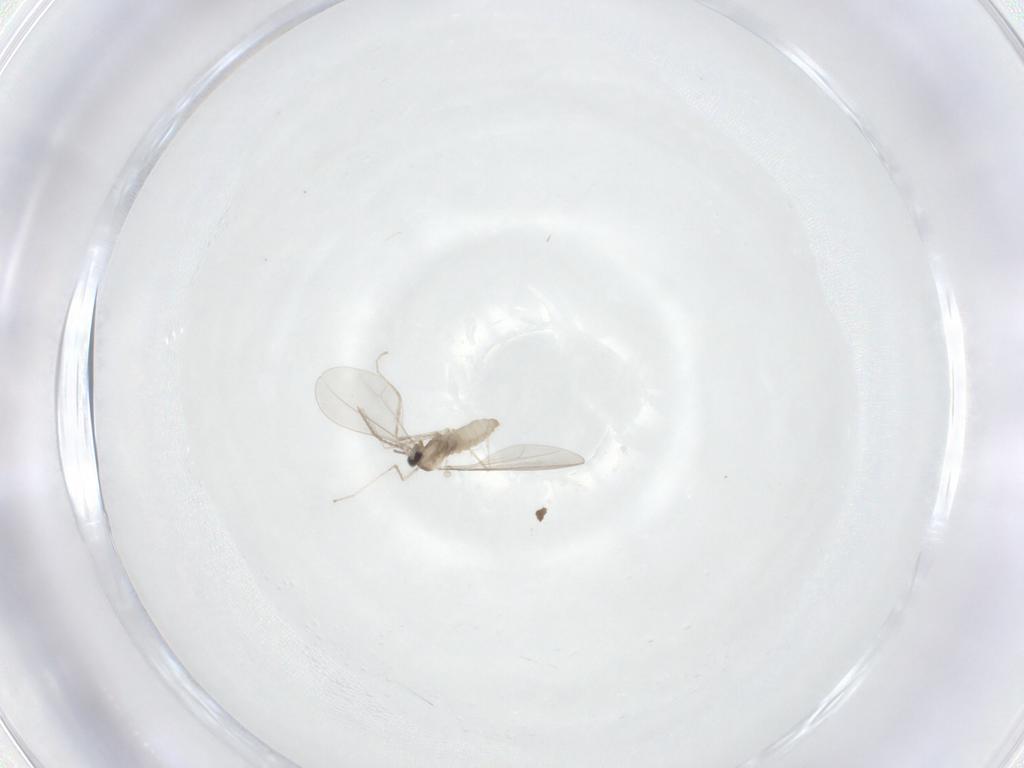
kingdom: Animalia
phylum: Arthropoda
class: Insecta
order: Diptera
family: Cecidomyiidae
